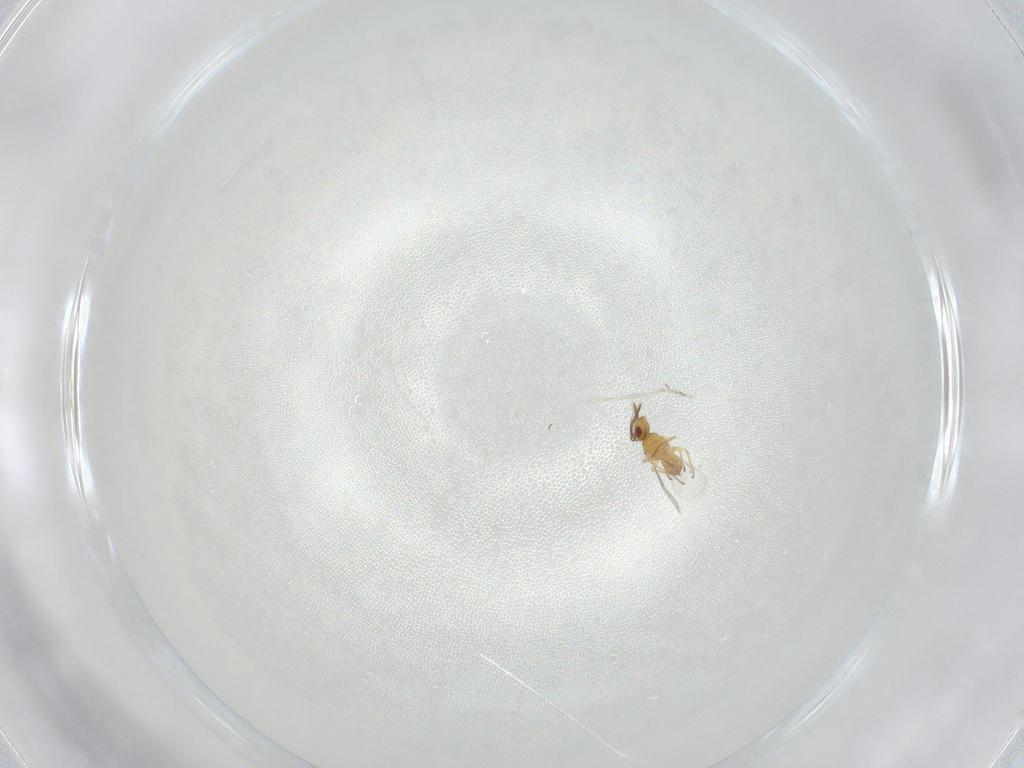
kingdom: Animalia
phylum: Arthropoda
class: Insecta
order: Hymenoptera
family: Eulophidae
